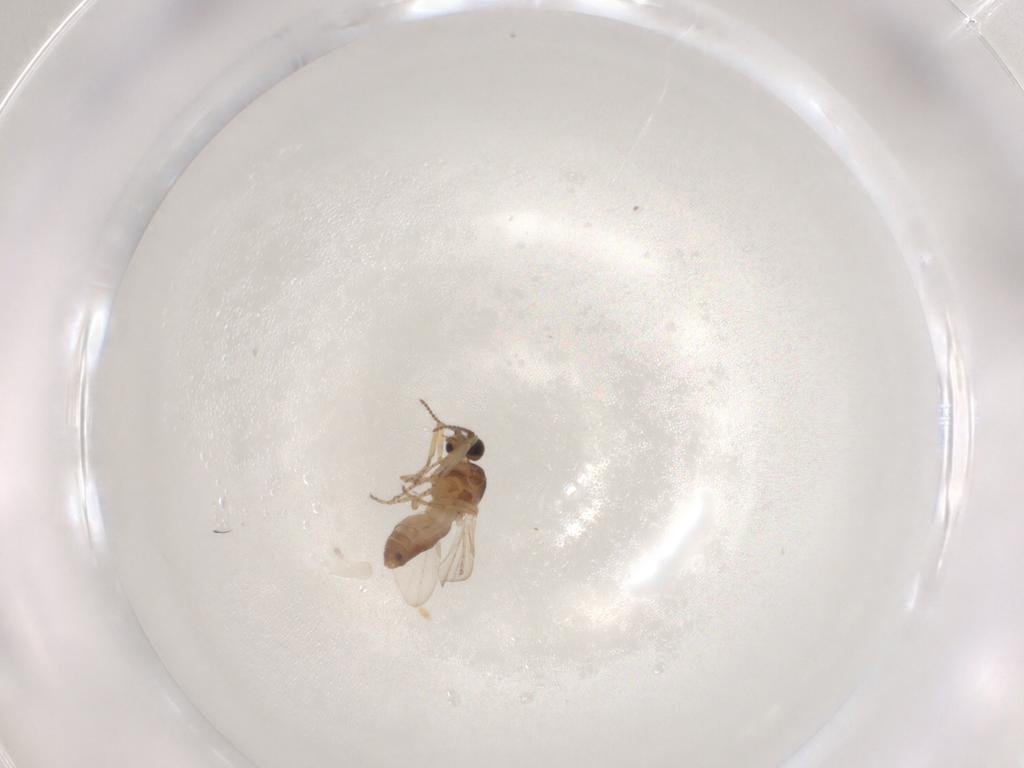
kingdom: Animalia
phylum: Arthropoda
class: Insecta
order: Diptera
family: Ceratopogonidae
